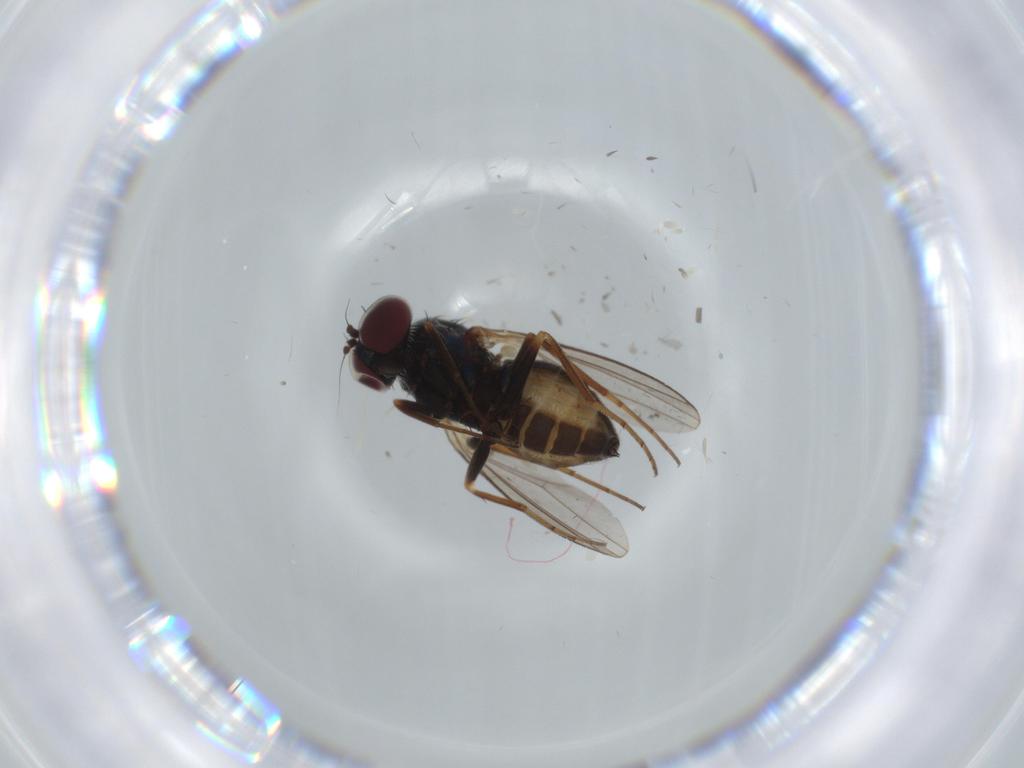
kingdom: Animalia
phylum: Arthropoda
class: Insecta
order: Diptera
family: Dolichopodidae
